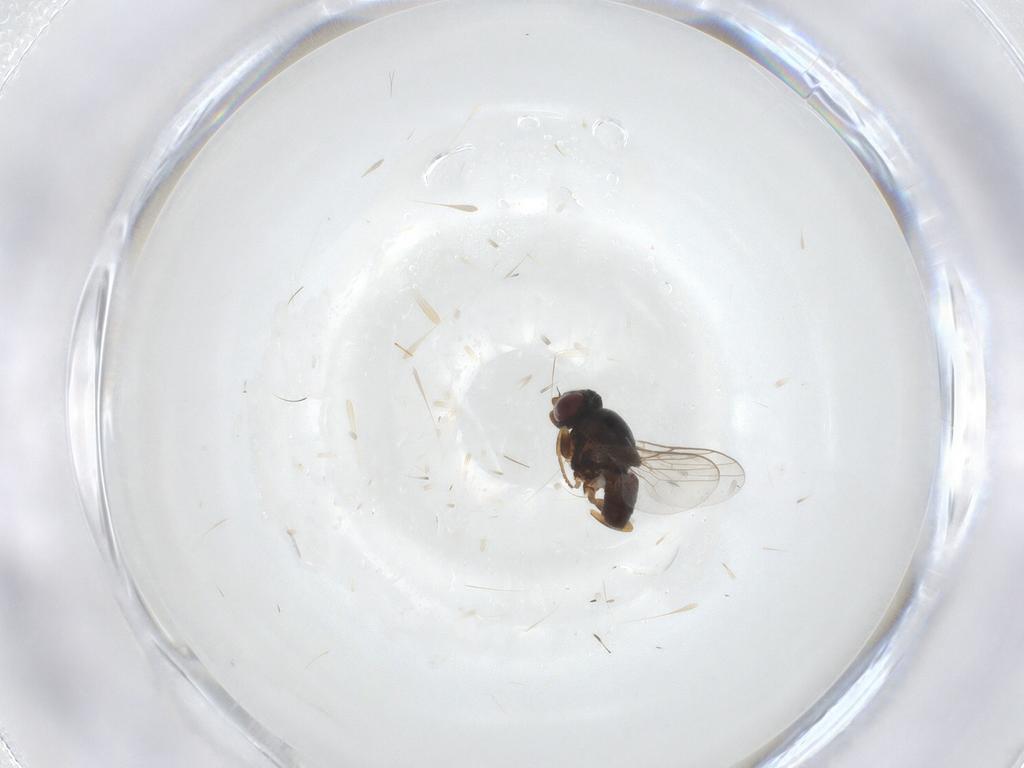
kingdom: Animalia
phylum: Arthropoda
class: Insecta
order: Diptera
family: Chloropidae
